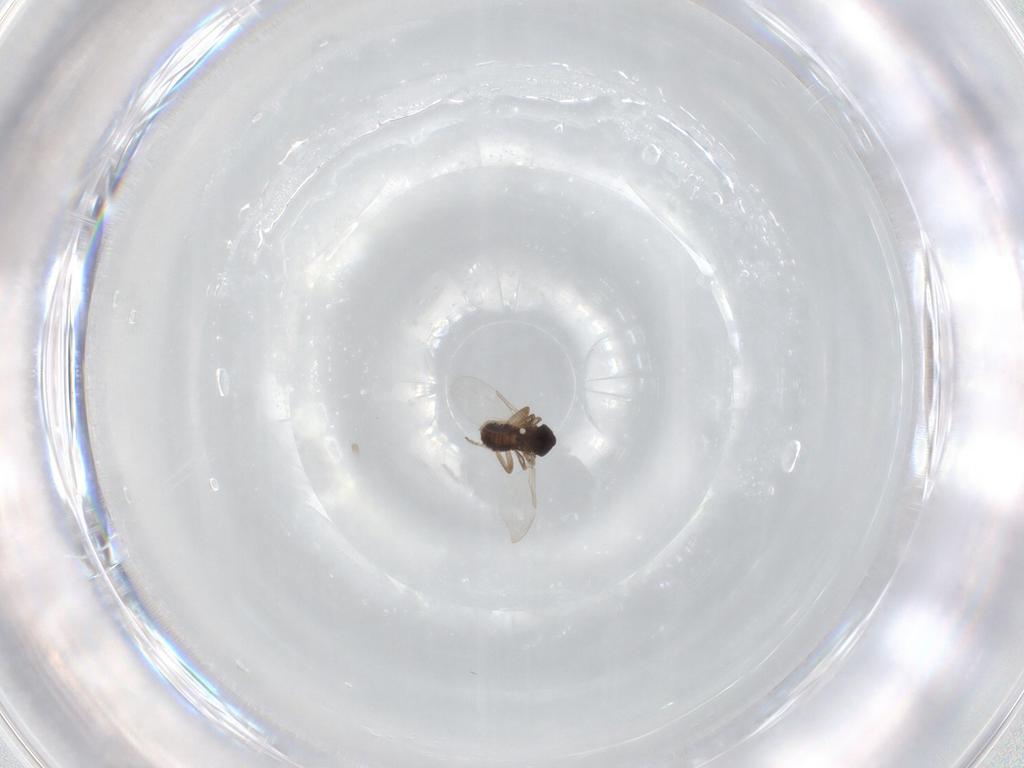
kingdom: Animalia
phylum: Arthropoda
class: Insecta
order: Diptera
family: Ceratopogonidae
